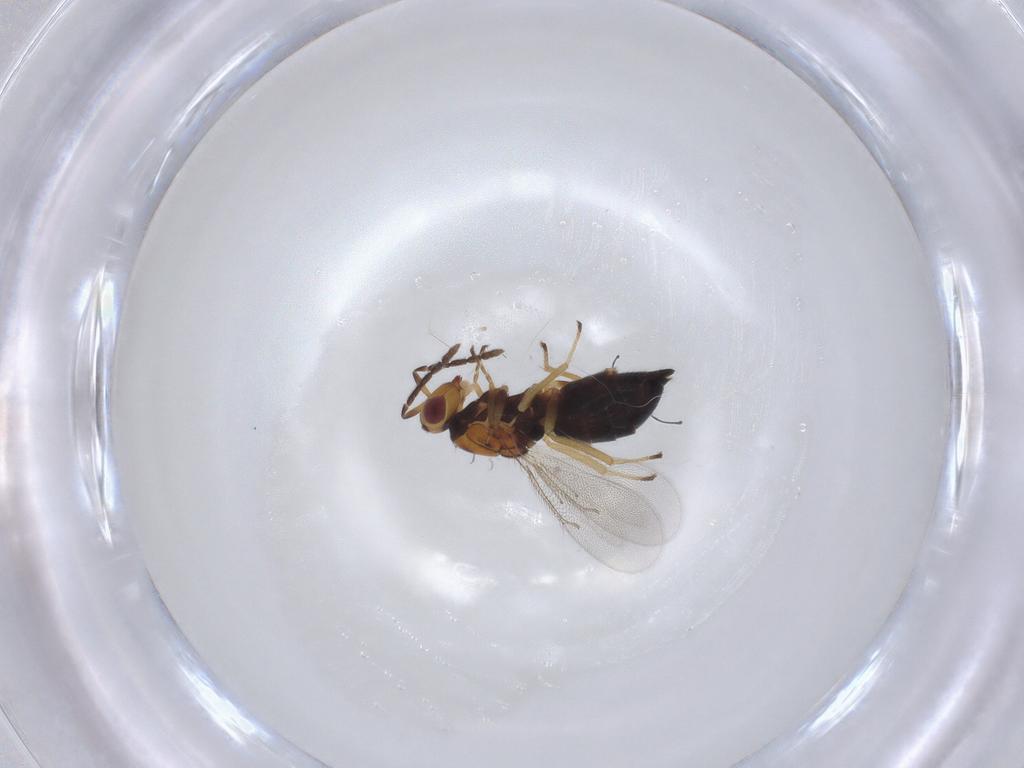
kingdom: Animalia
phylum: Arthropoda
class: Insecta
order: Hymenoptera
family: Eulophidae
